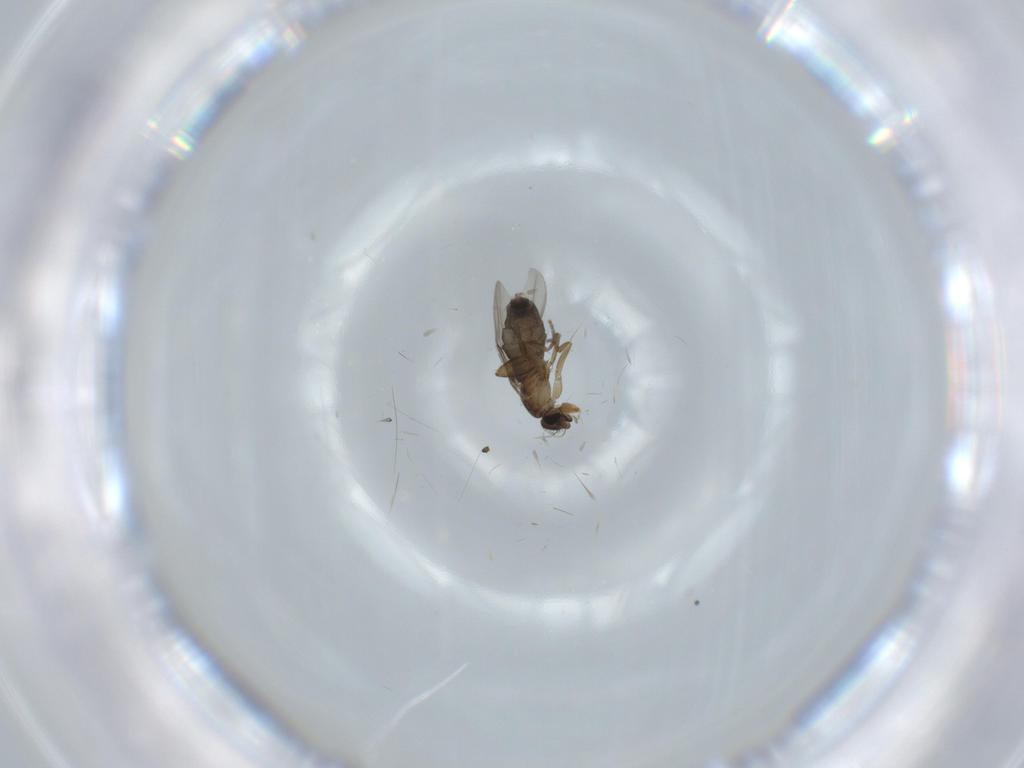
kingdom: Animalia
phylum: Arthropoda
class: Insecta
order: Diptera
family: Phoridae
